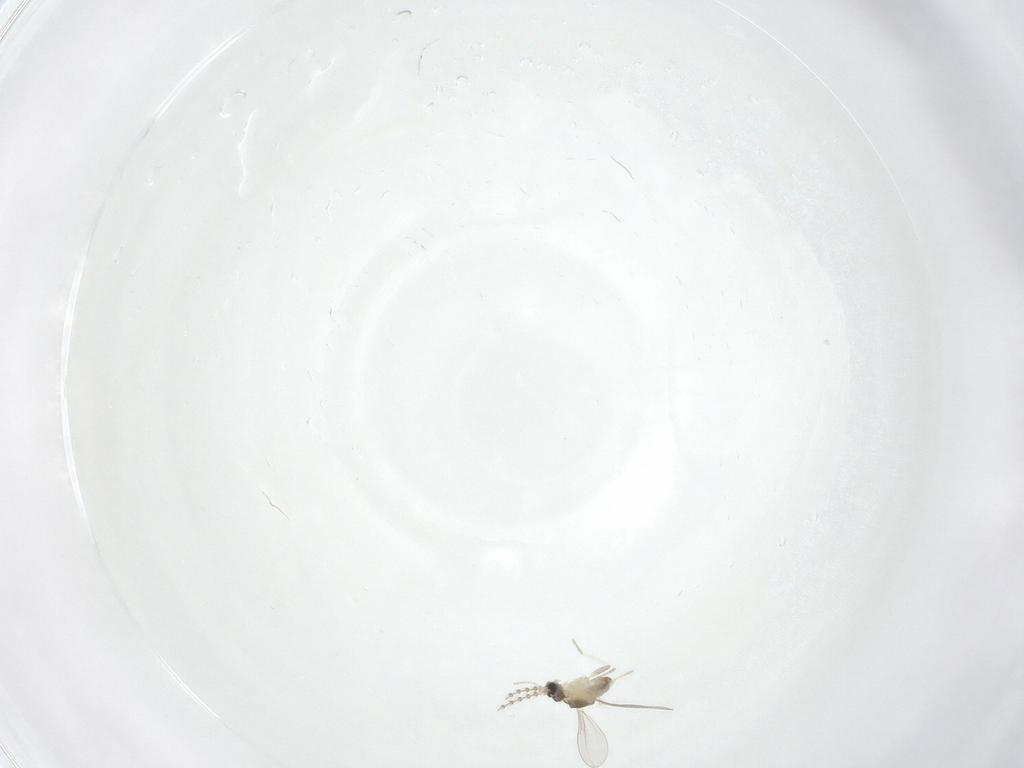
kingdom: Animalia
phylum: Arthropoda
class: Insecta
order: Diptera
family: Cecidomyiidae
